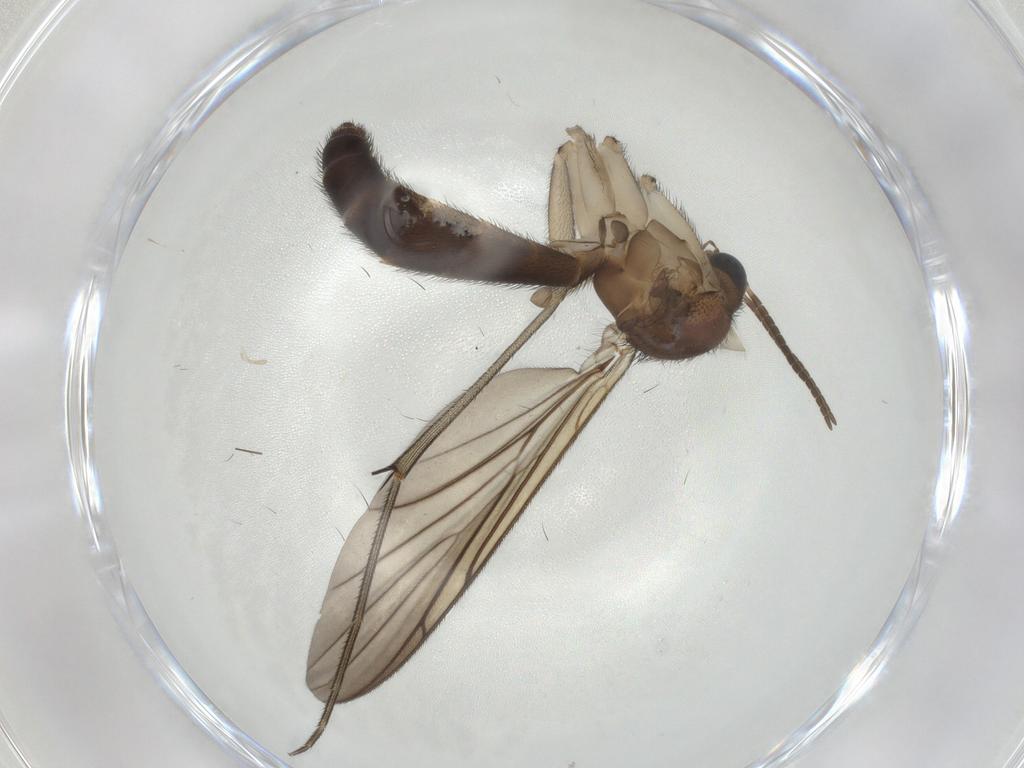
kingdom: Animalia
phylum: Arthropoda
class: Insecta
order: Diptera
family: Keroplatidae
